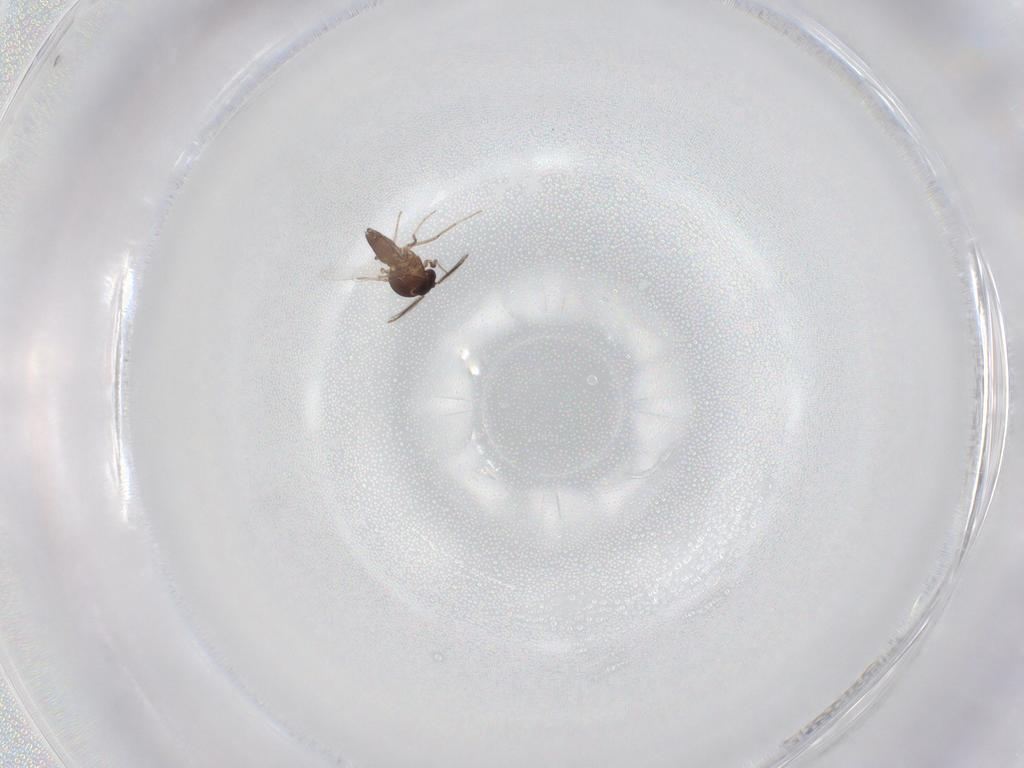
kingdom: Animalia
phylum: Arthropoda
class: Insecta
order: Diptera
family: Ceratopogonidae
